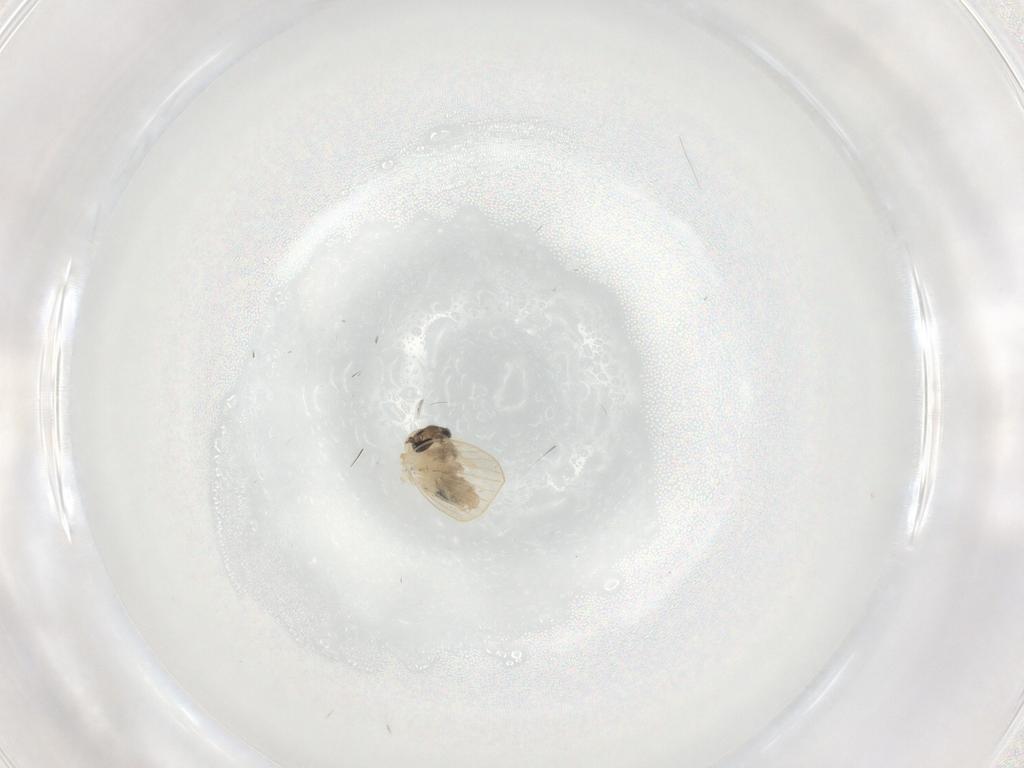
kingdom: Animalia
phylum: Arthropoda
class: Insecta
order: Diptera
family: Psychodidae
